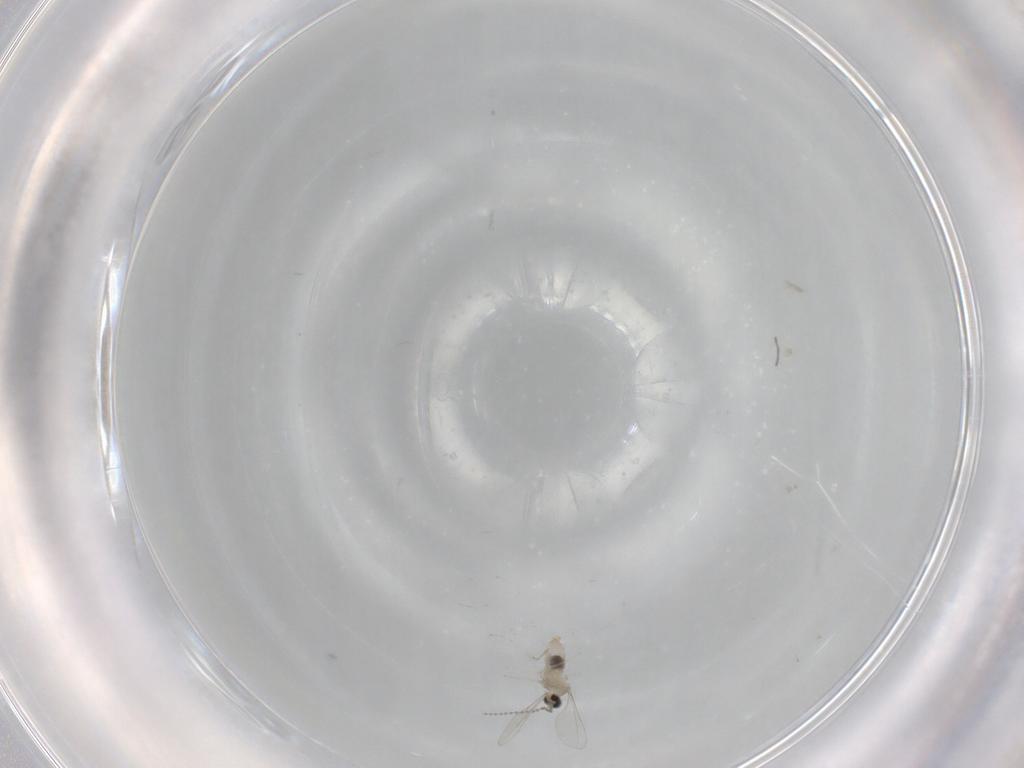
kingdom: Animalia
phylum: Arthropoda
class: Insecta
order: Diptera
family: Cecidomyiidae
